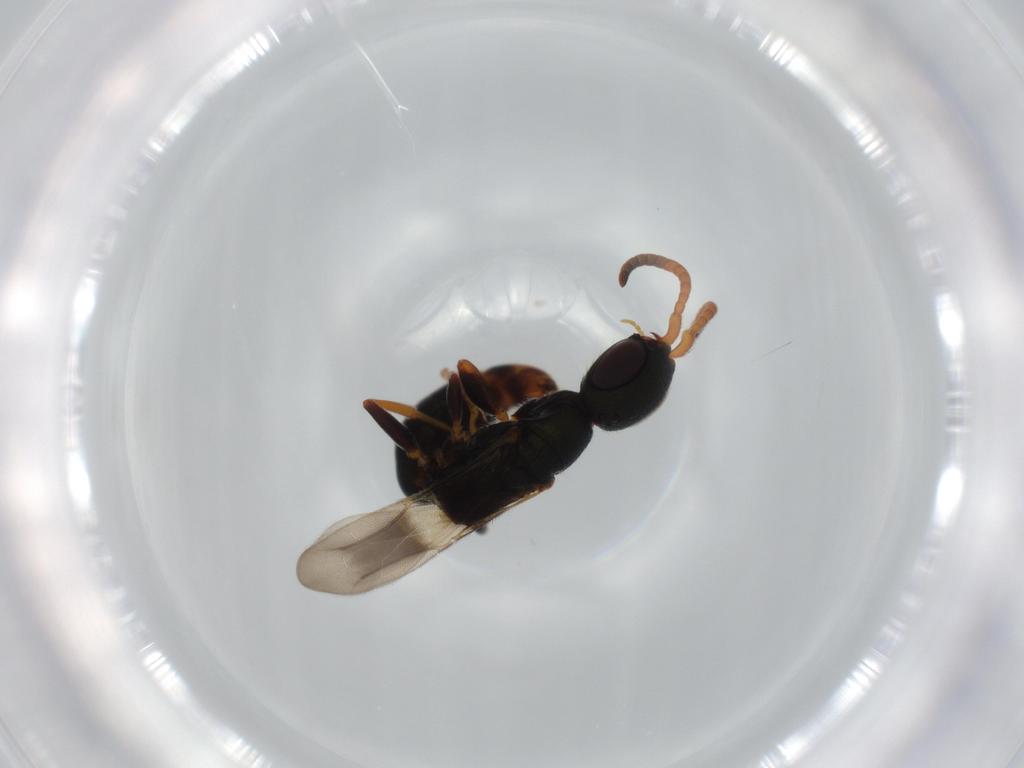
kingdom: Animalia
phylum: Arthropoda
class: Insecta
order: Hymenoptera
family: Bethylidae
